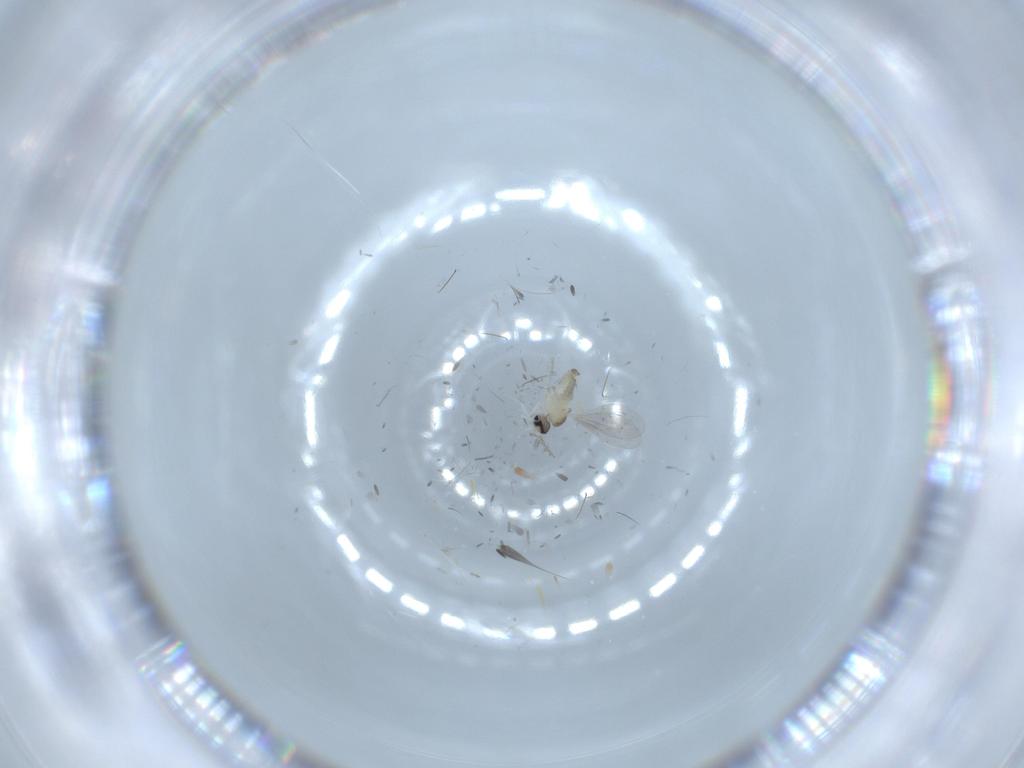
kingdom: Animalia
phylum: Arthropoda
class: Insecta
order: Diptera
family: Cecidomyiidae
